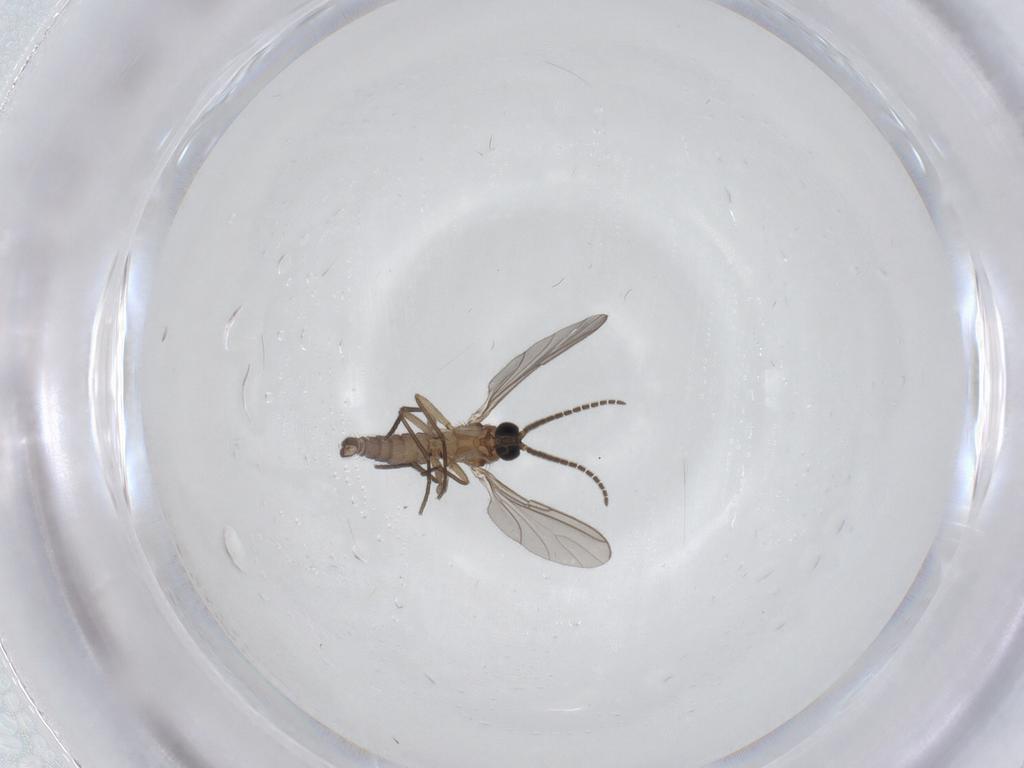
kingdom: Animalia
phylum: Arthropoda
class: Insecta
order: Diptera
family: Sciaridae
